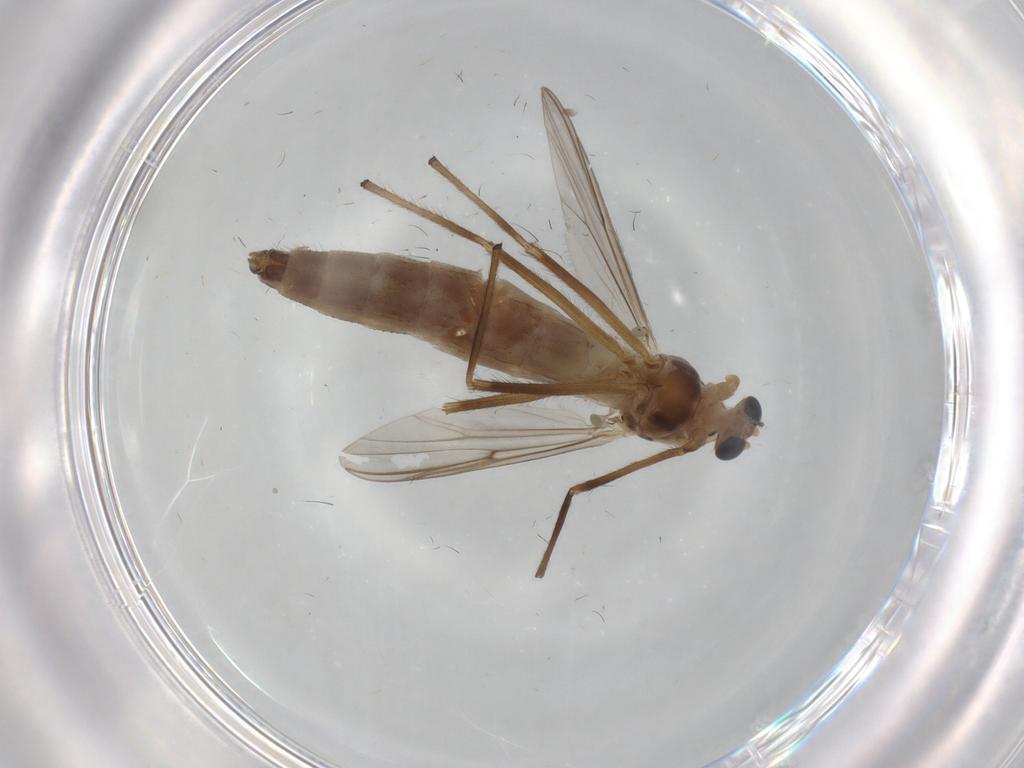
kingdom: Animalia
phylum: Arthropoda
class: Insecta
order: Diptera
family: Chironomidae
